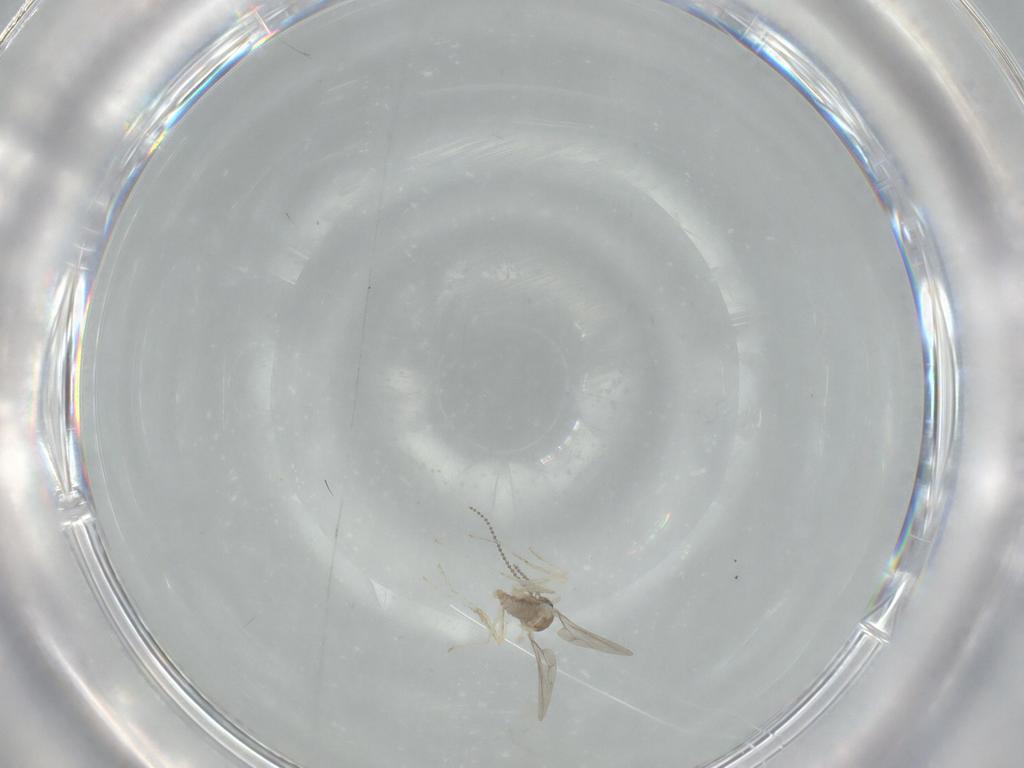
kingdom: Animalia
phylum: Arthropoda
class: Insecta
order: Diptera
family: Cecidomyiidae
